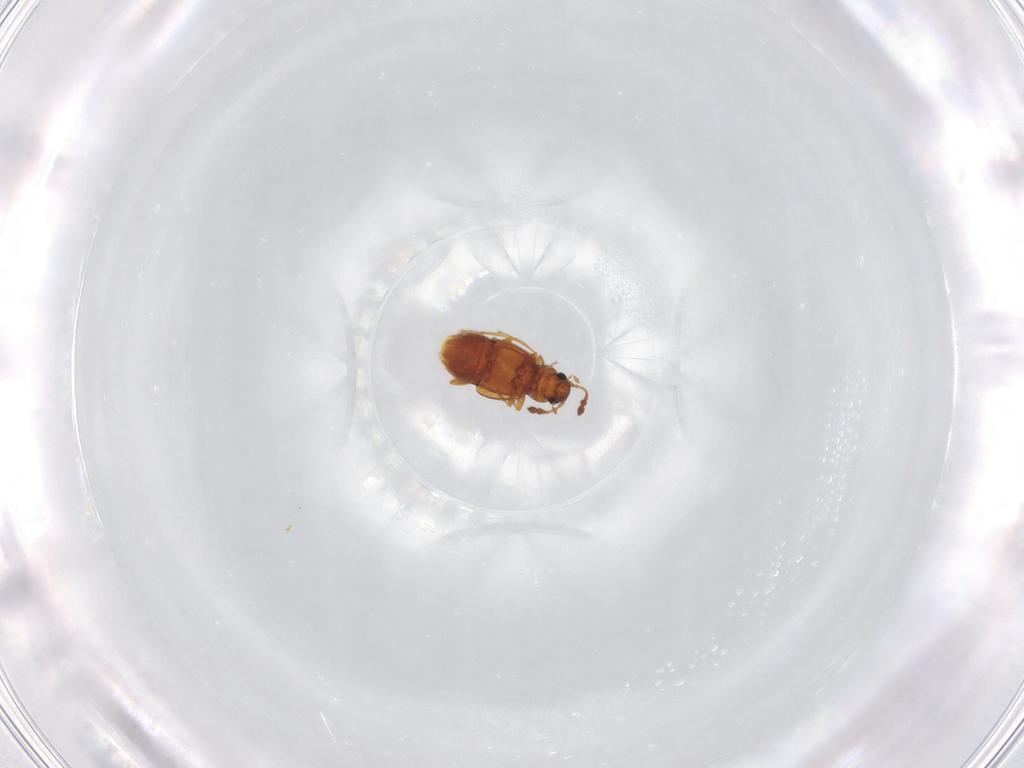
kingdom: Animalia
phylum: Arthropoda
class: Insecta
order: Coleoptera
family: Staphylinidae
